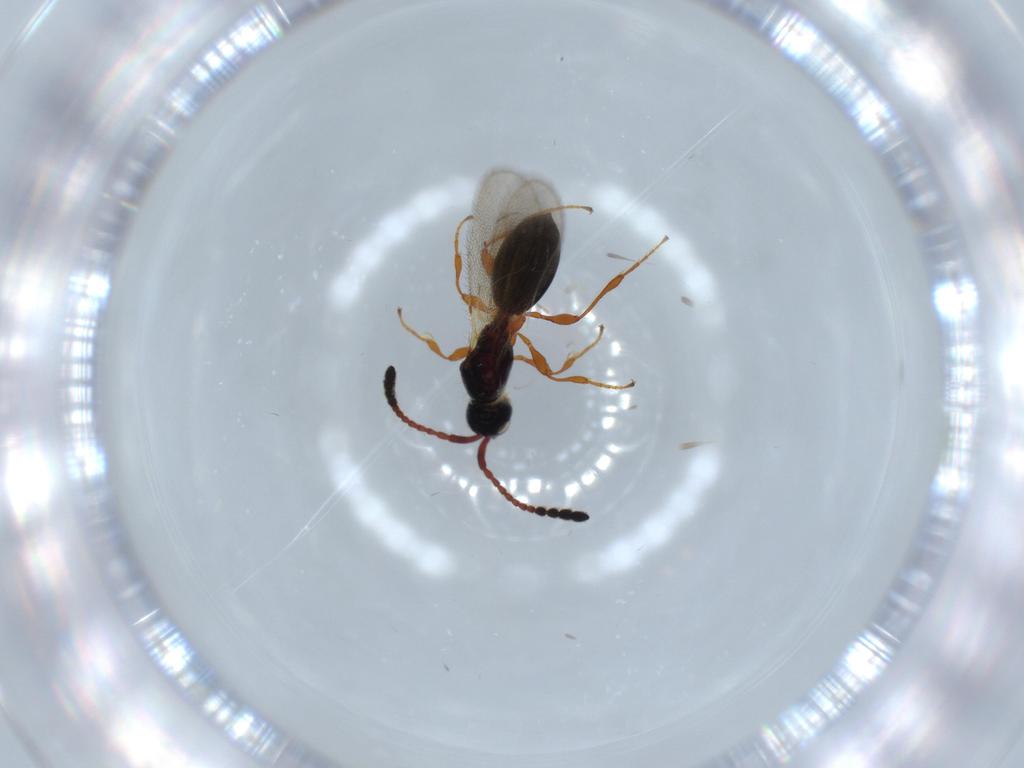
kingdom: Animalia
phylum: Arthropoda
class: Insecta
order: Hymenoptera
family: Diapriidae
